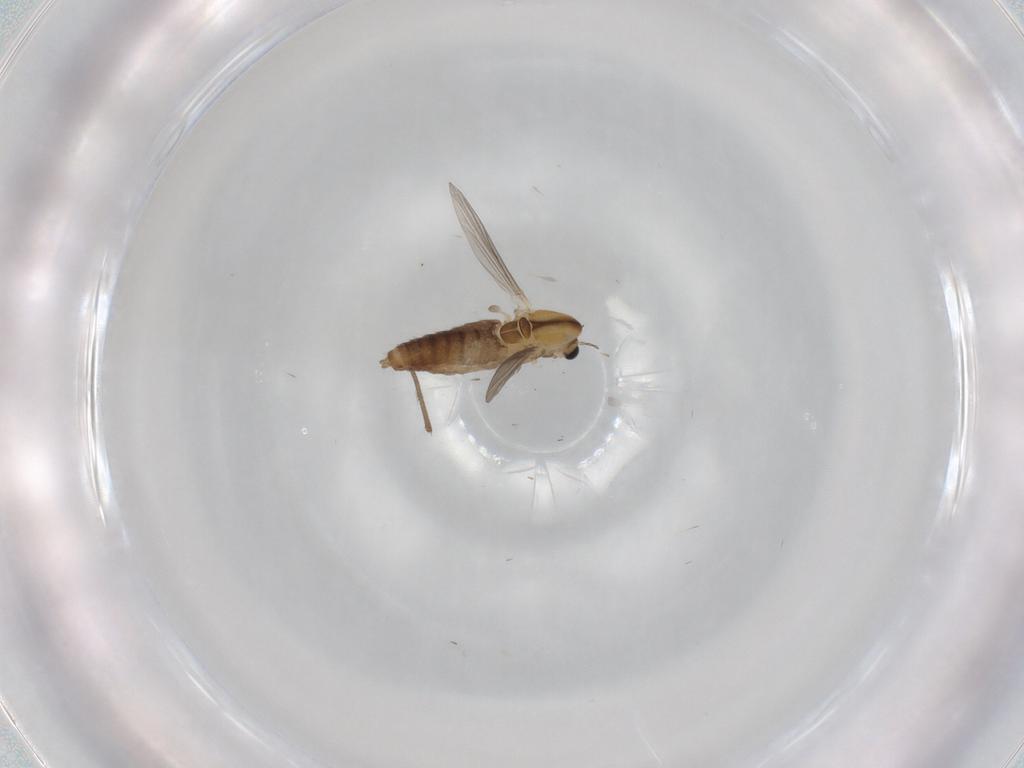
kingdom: Animalia
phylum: Arthropoda
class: Insecta
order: Diptera
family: Chironomidae
